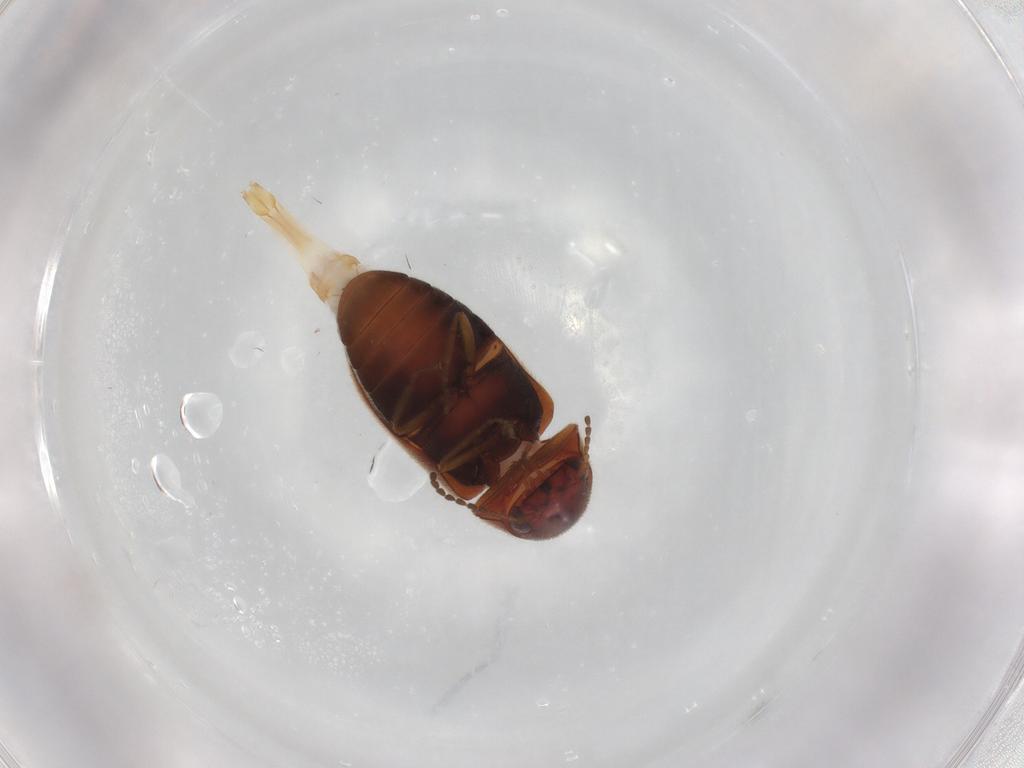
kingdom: Animalia
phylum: Arthropoda
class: Insecta
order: Coleoptera
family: Ptinidae
